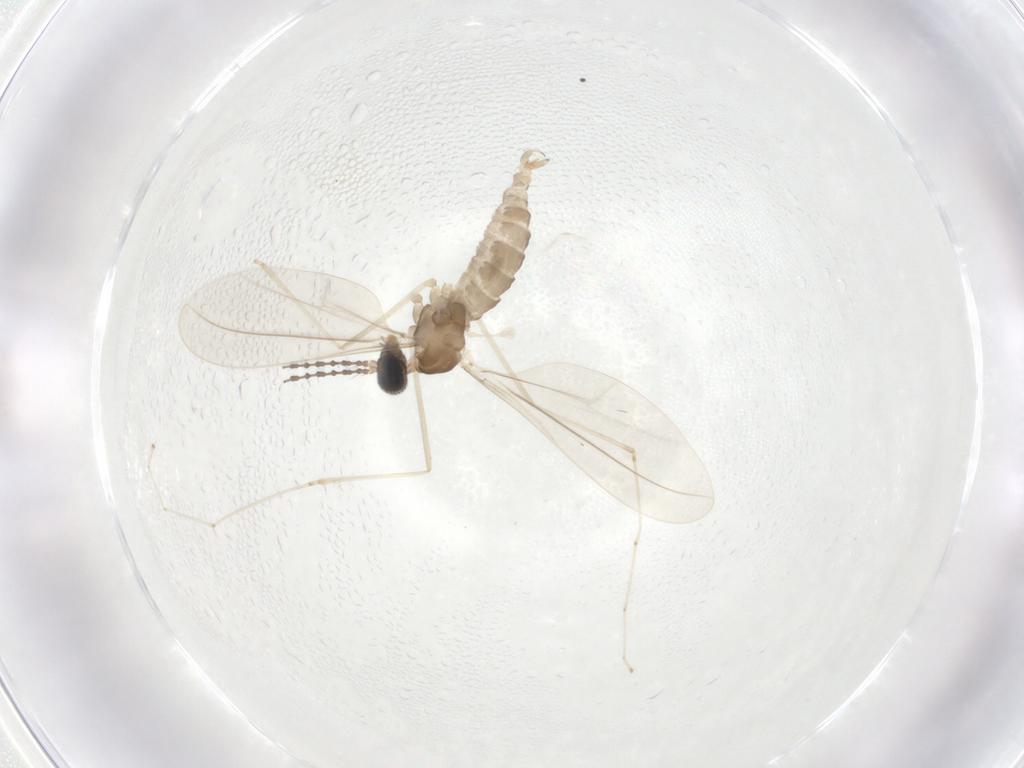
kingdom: Animalia
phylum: Arthropoda
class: Insecta
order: Diptera
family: Cecidomyiidae
